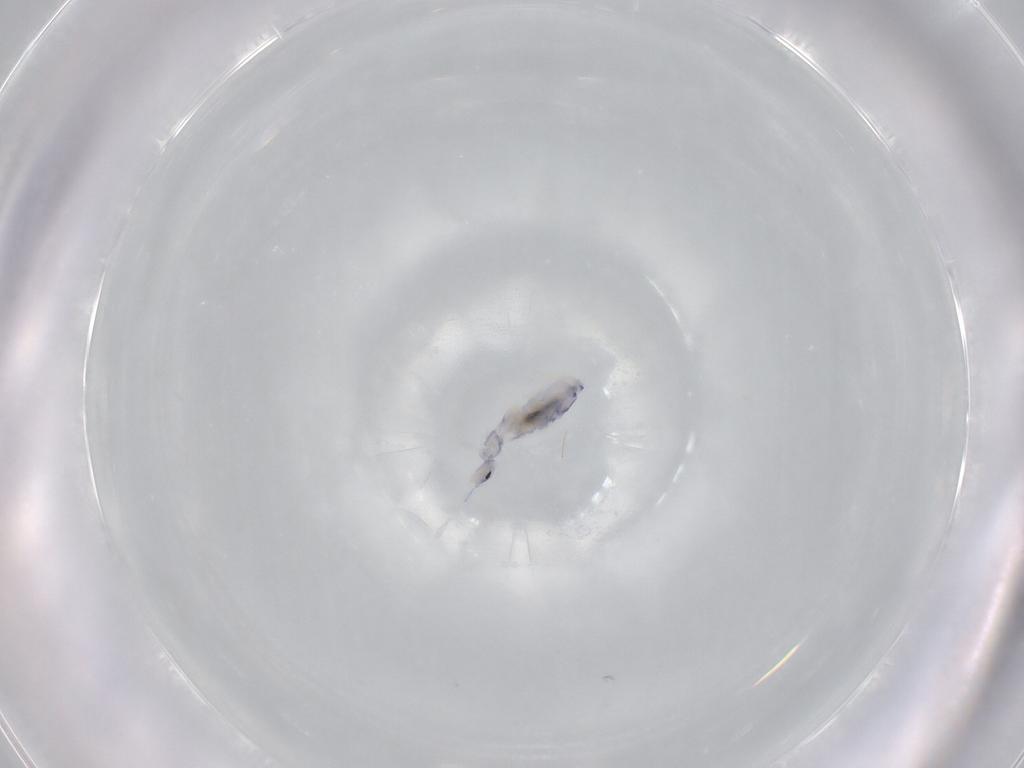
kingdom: Animalia
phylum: Arthropoda
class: Collembola
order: Entomobryomorpha
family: Entomobryidae
